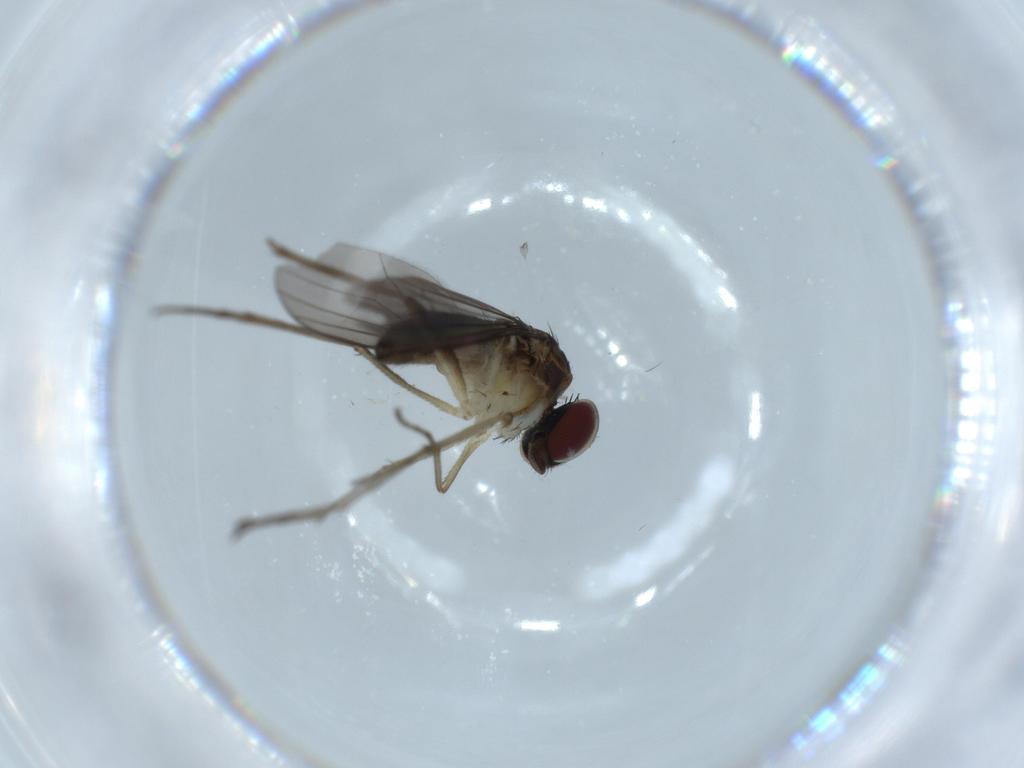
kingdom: Animalia
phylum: Arthropoda
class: Insecta
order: Diptera
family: Dolichopodidae
